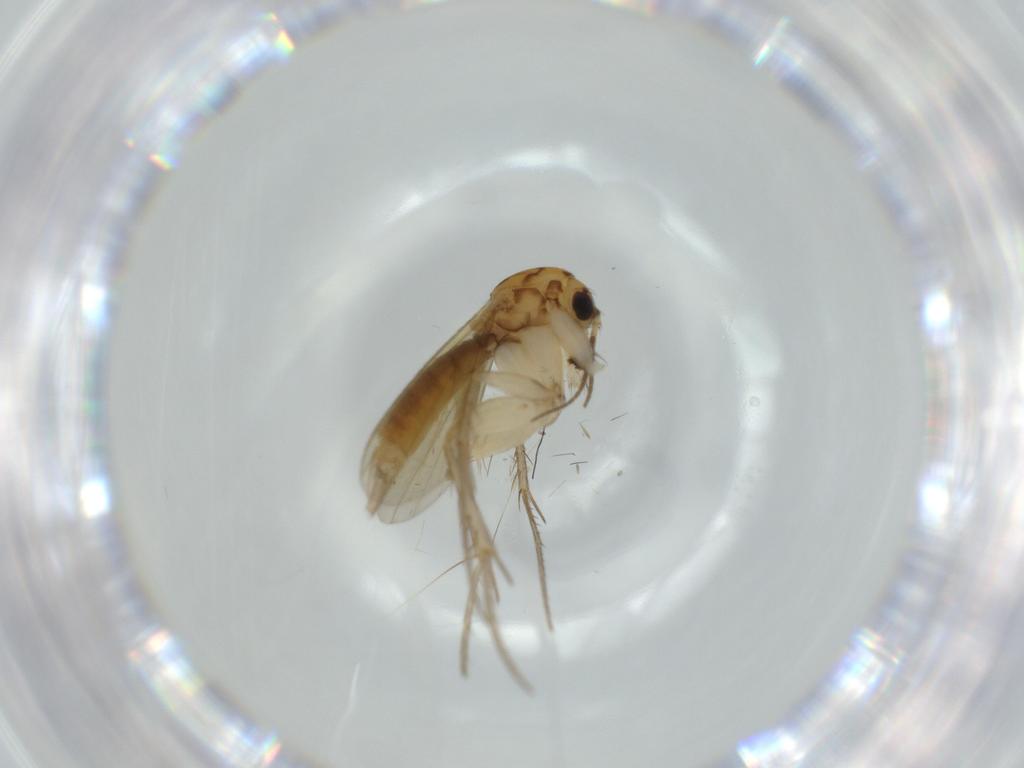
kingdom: Animalia
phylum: Arthropoda
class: Insecta
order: Diptera
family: Mycetophilidae
